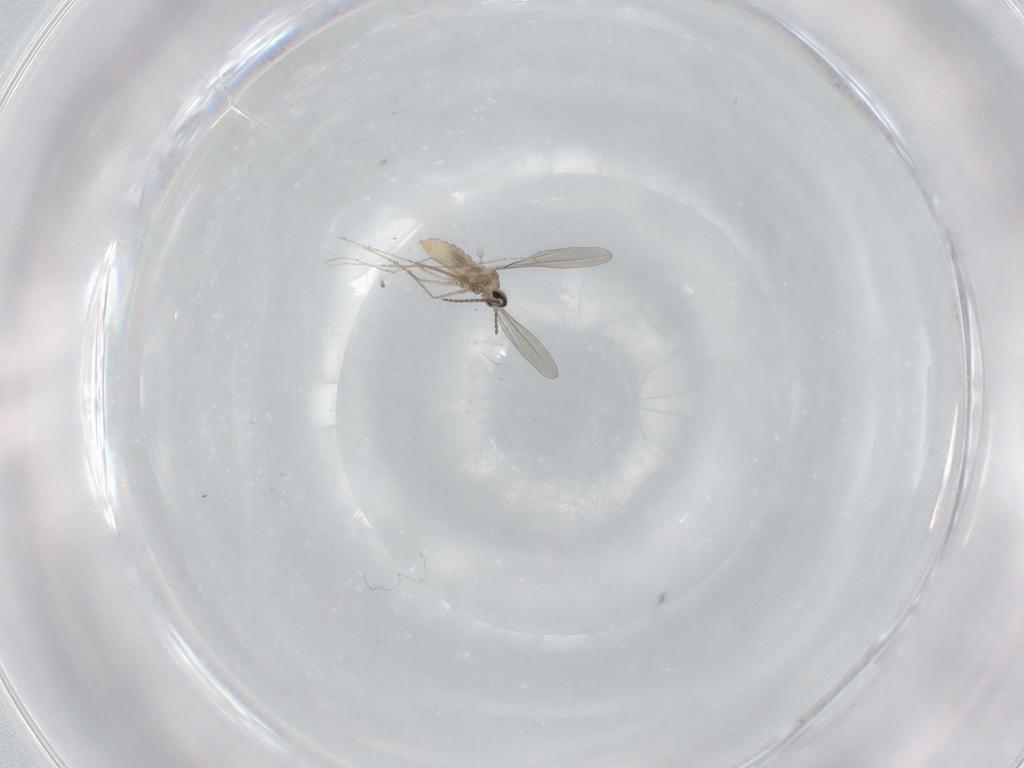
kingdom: Animalia
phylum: Arthropoda
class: Insecta
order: Diptera
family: Cecidomyiidae
